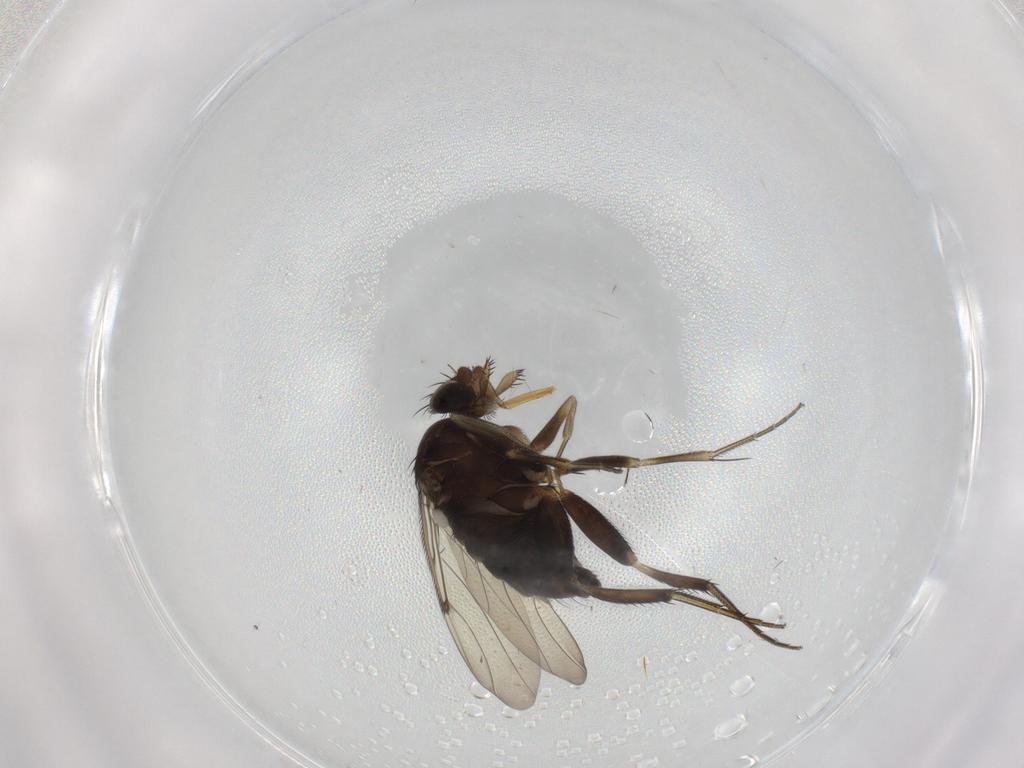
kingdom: Animalia
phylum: Arthropoda
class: Insecta
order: Diptera
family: Phoridae
